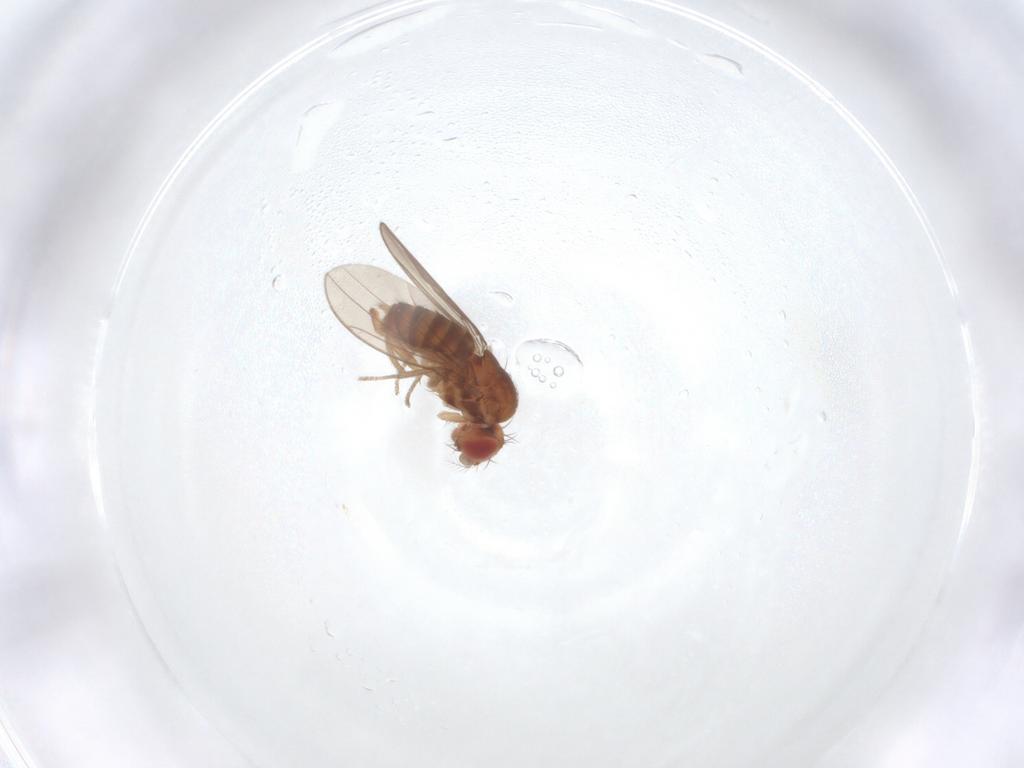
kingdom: Animalia
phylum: Arthropoda
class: Insecta
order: Diptera
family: Ephydridae
